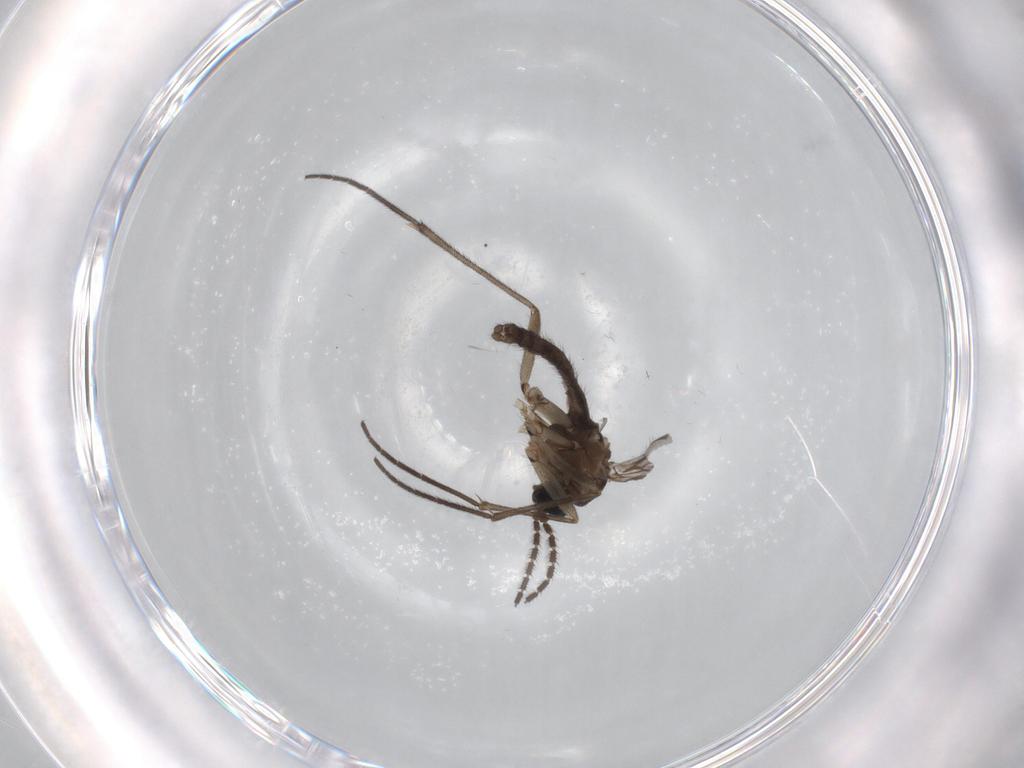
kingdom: Animalia
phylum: Arthropoda
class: Insecta
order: Diptera
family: Sciaridae
